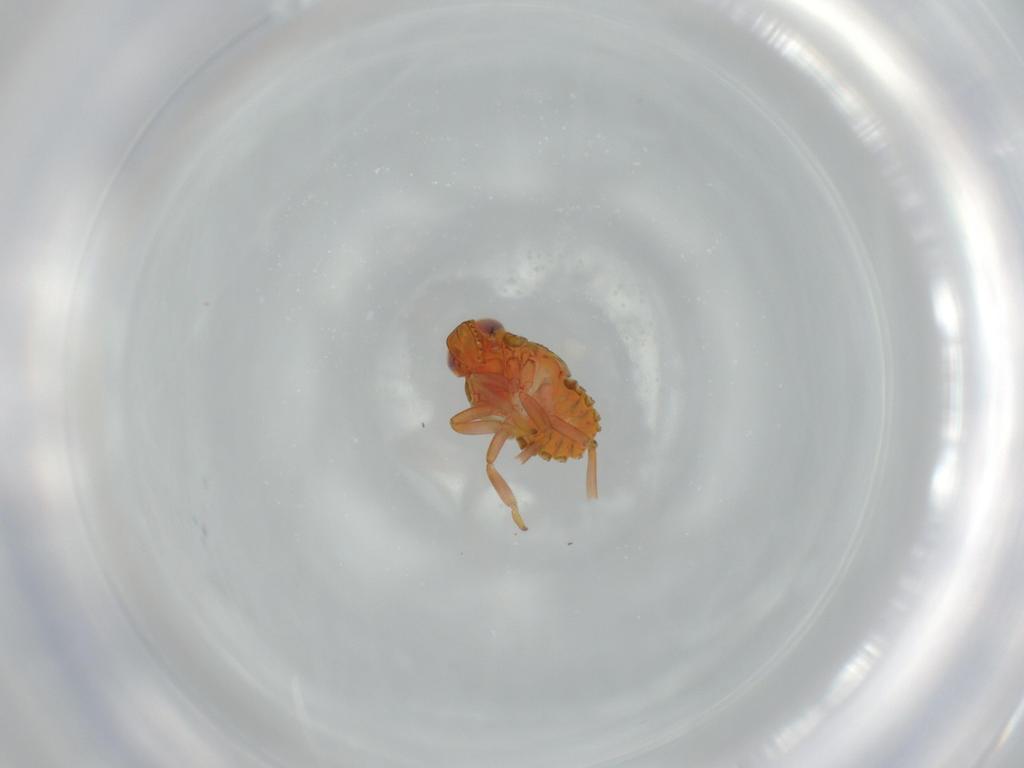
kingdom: Animalia
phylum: Arthropoda
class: Insecta
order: Hemiptera
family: Issidae
